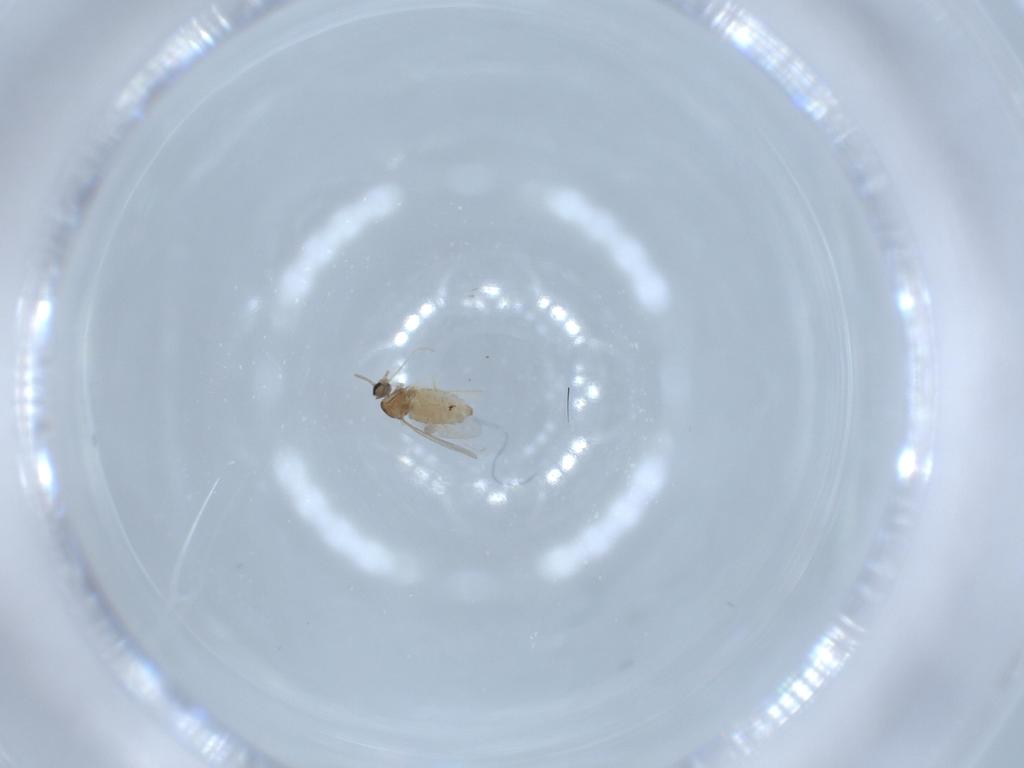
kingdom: Animalia
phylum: Arthropoda
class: Insecta
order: Diptera
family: Cecidomyiidae
